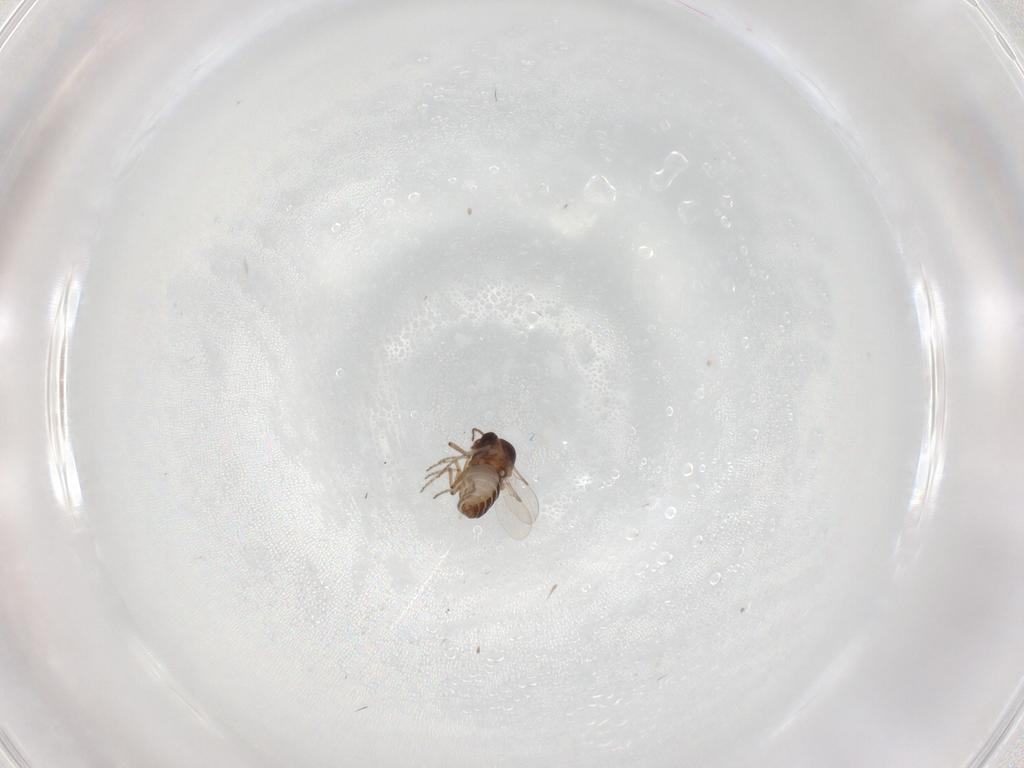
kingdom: Animalia
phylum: Arthropoda
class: Insecta
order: Diptera
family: Ceratopogonidae
